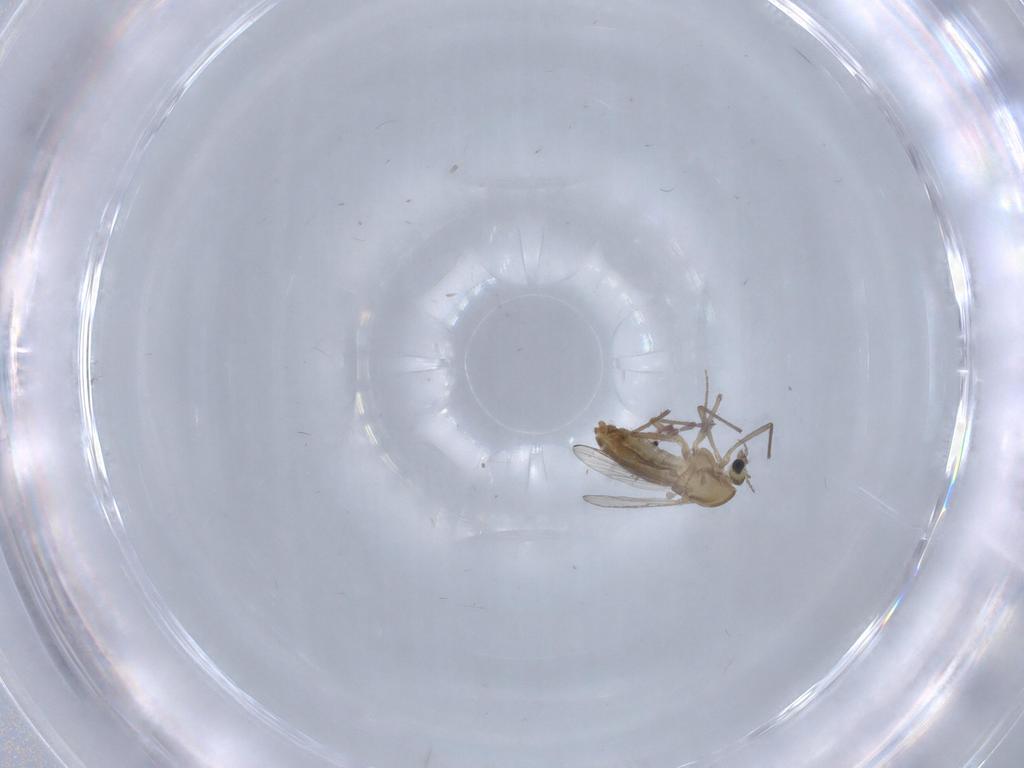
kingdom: Animalia
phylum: Arthropoda
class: Insecta
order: Diptera
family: Chironomidae
